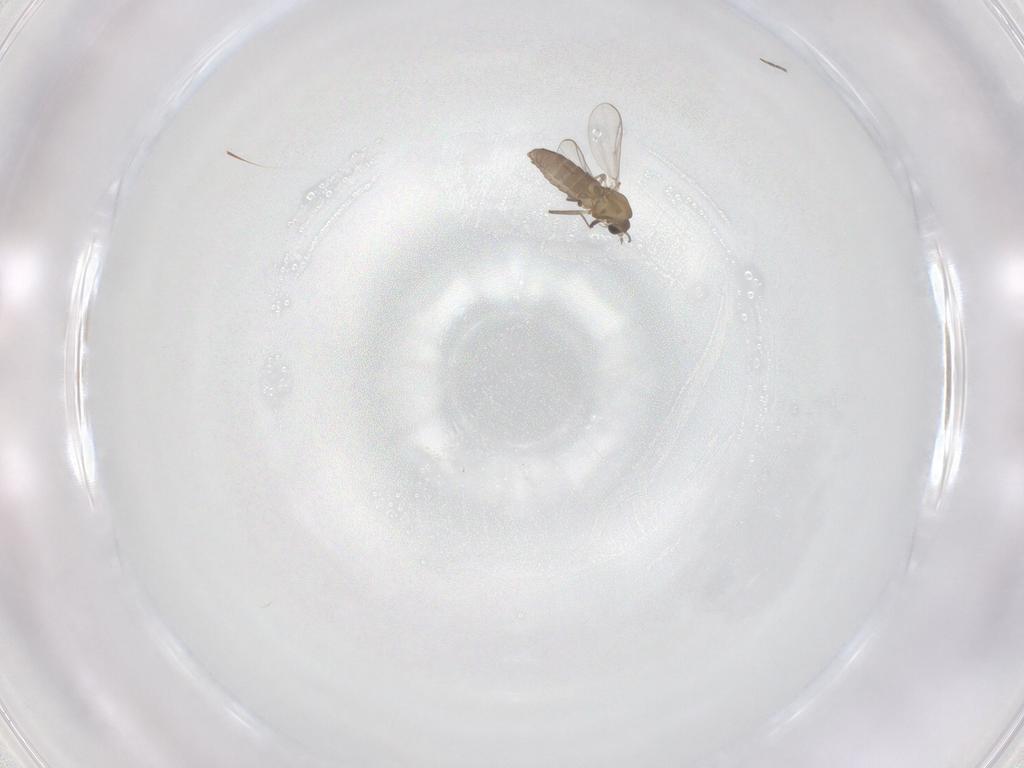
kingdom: Animalia
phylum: Arthropoda
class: Insecta
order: Diptera
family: Chironomidae
